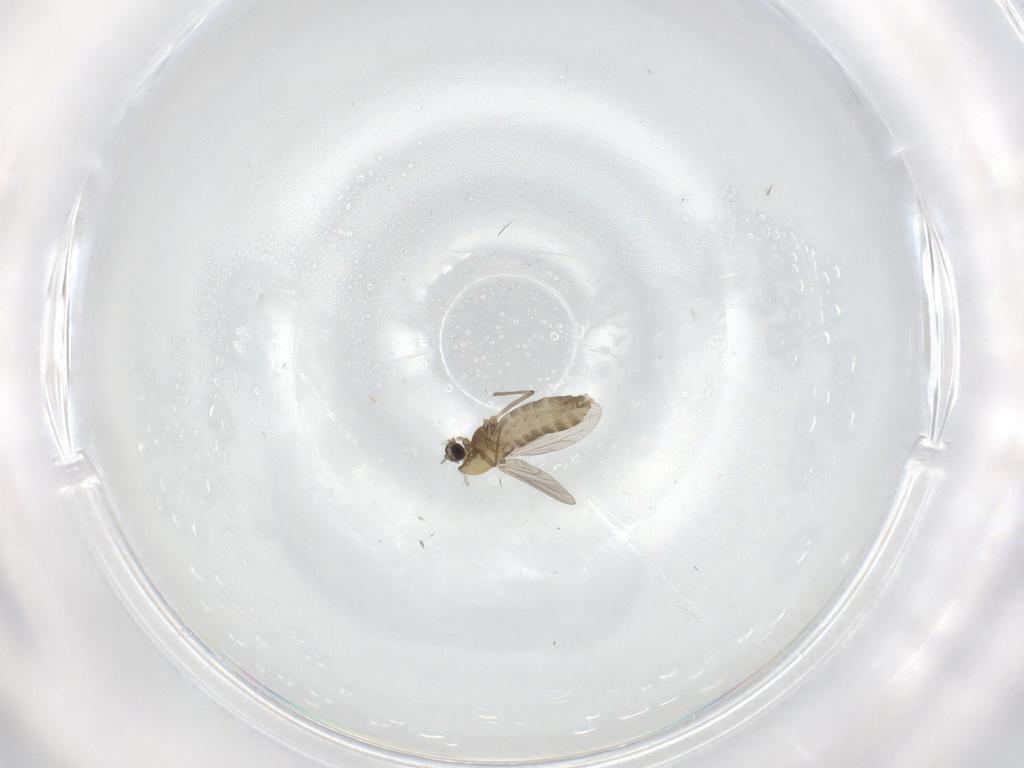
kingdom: Animalia
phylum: Arthropoda
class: Insecta
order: Diptera
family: Chironomidae
